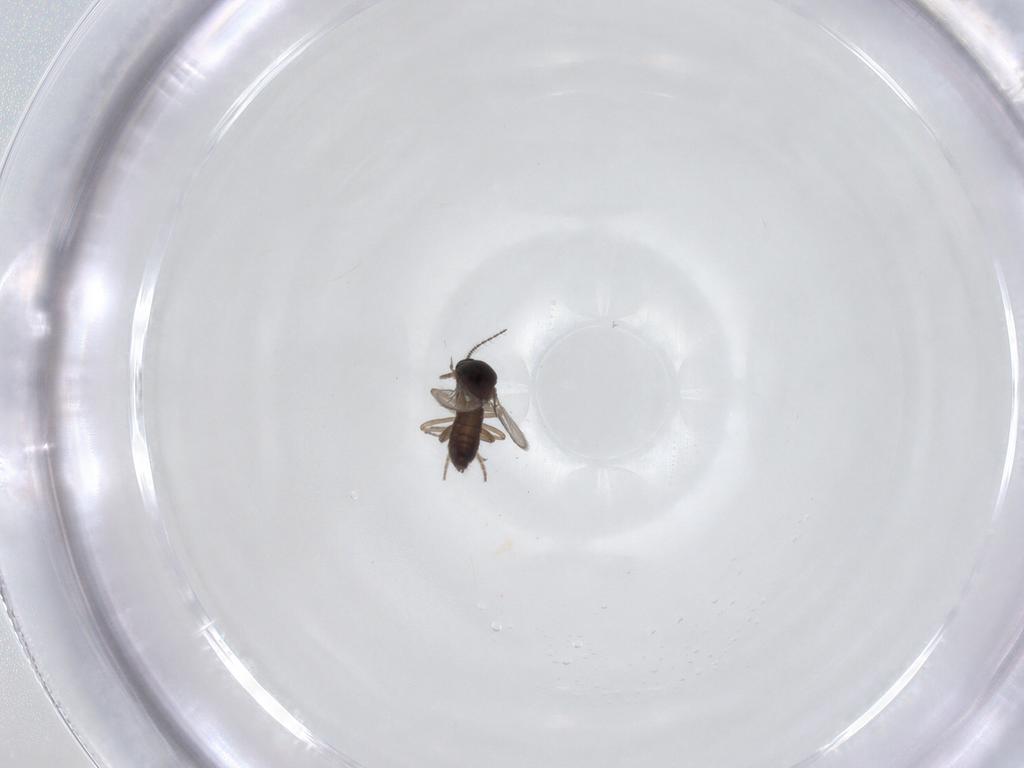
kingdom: Animalia
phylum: Arthropoda
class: Insecta
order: Diptera
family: Ceratopogonidae
